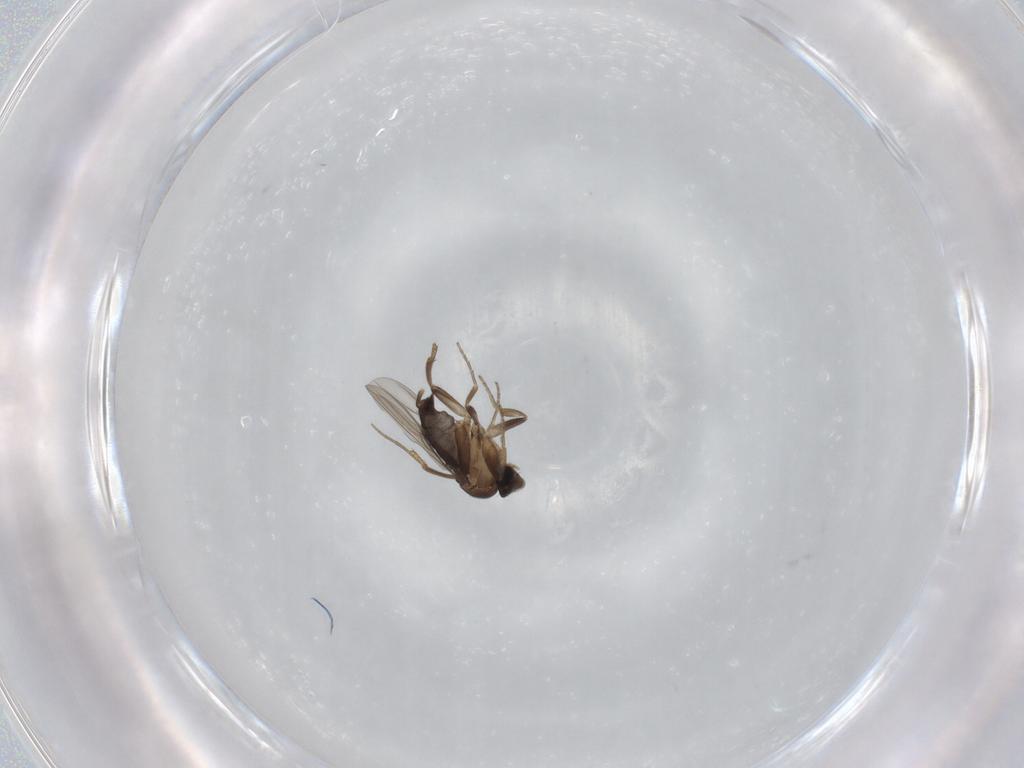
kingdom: Animalia
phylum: Arthropoda
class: Insecta
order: Diptera
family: Phoridae
